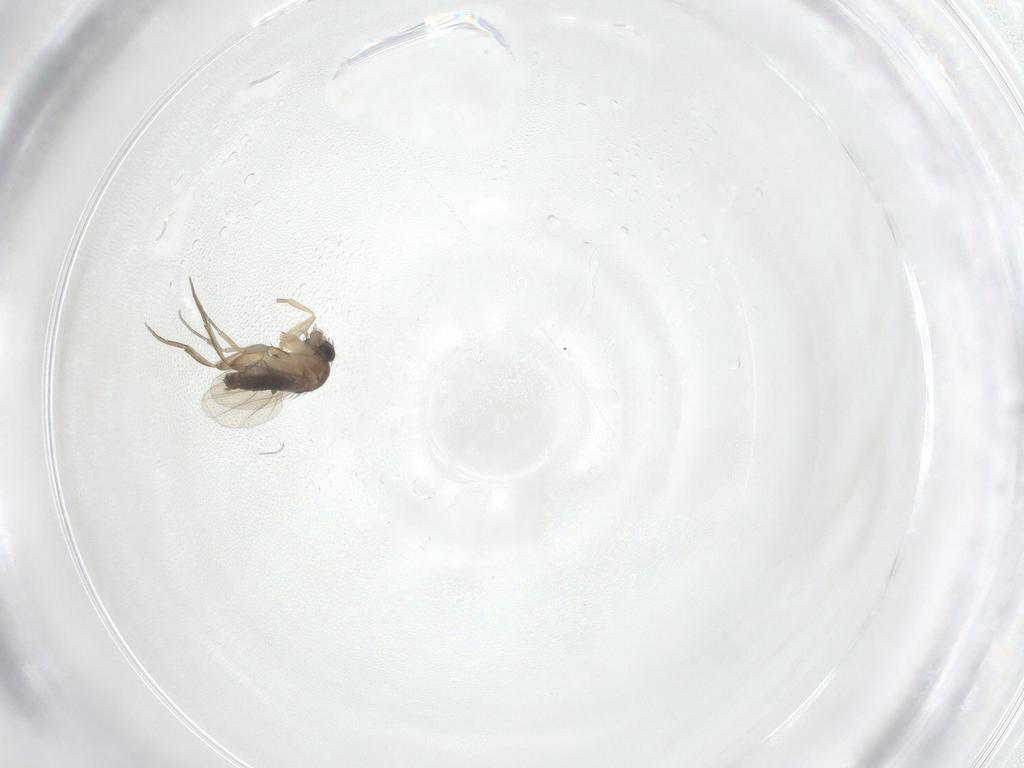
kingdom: Animalia
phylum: Arthropoda
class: Insecta
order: Diptera
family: Phoridae
